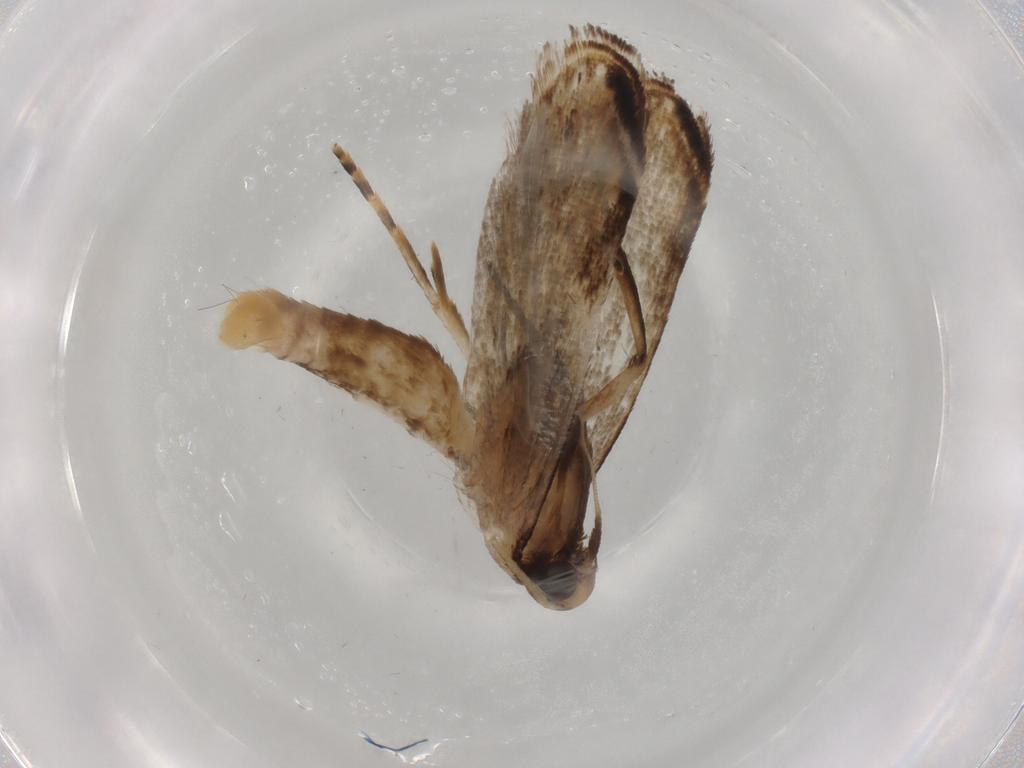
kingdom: Animalia
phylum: Arthropoda
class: Insecta
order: Lepidoptera
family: Gelechiidae
